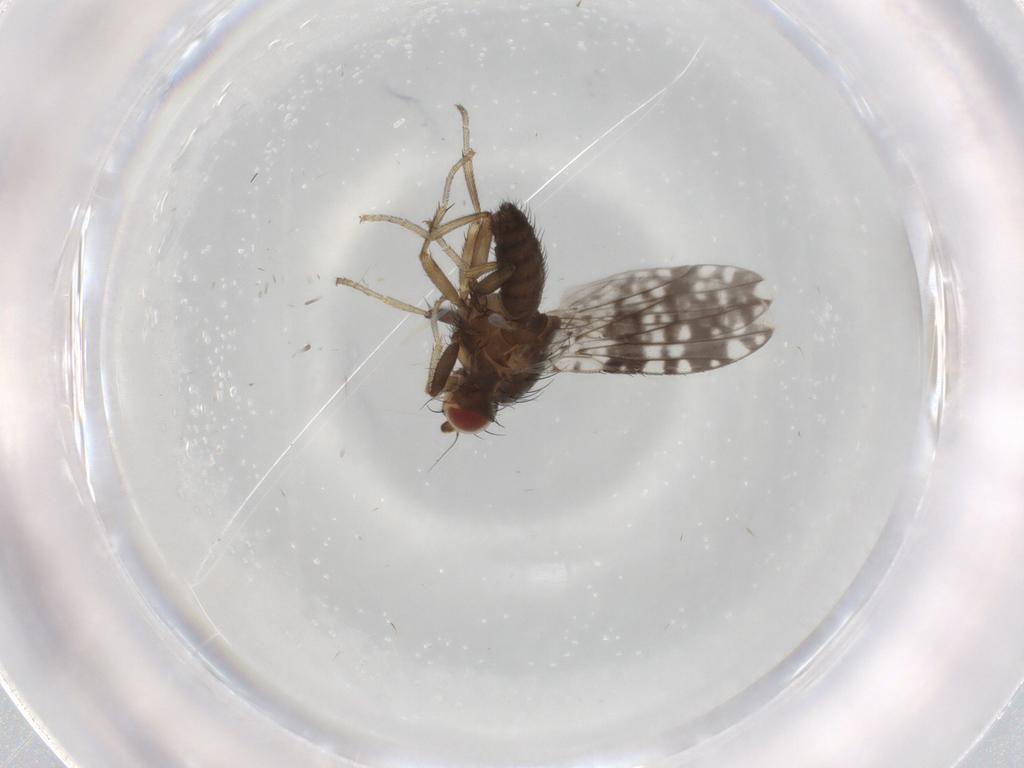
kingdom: Animalia
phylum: Arthropoda
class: Insecta
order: Diptera
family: Tephritidae
